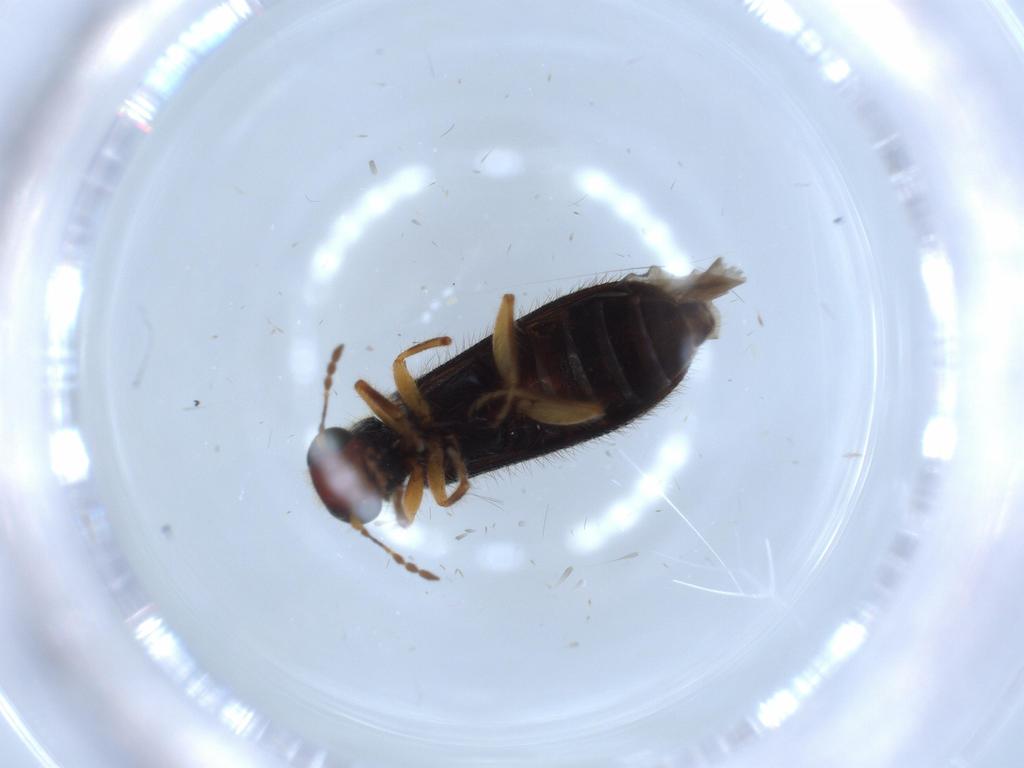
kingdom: Animalia
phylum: Arthropoda
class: Insecta
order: Coleoptera
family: Cleridae
